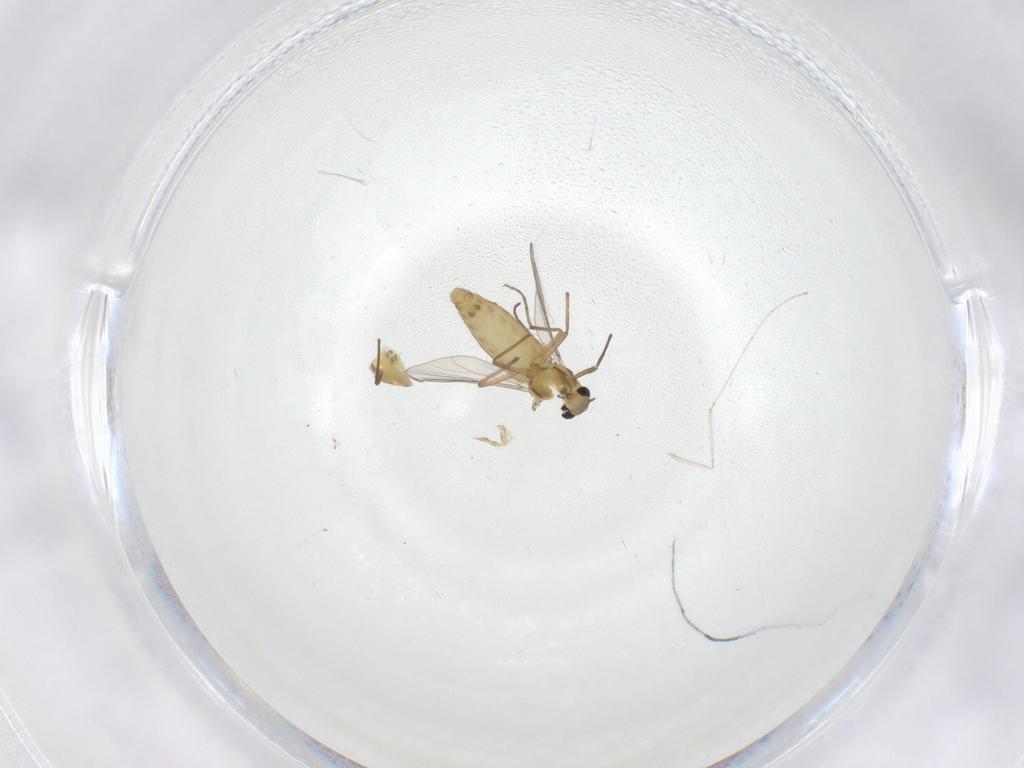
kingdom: Animalia
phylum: Arthropoda
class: Insecta
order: Diptera
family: Chironomidae
